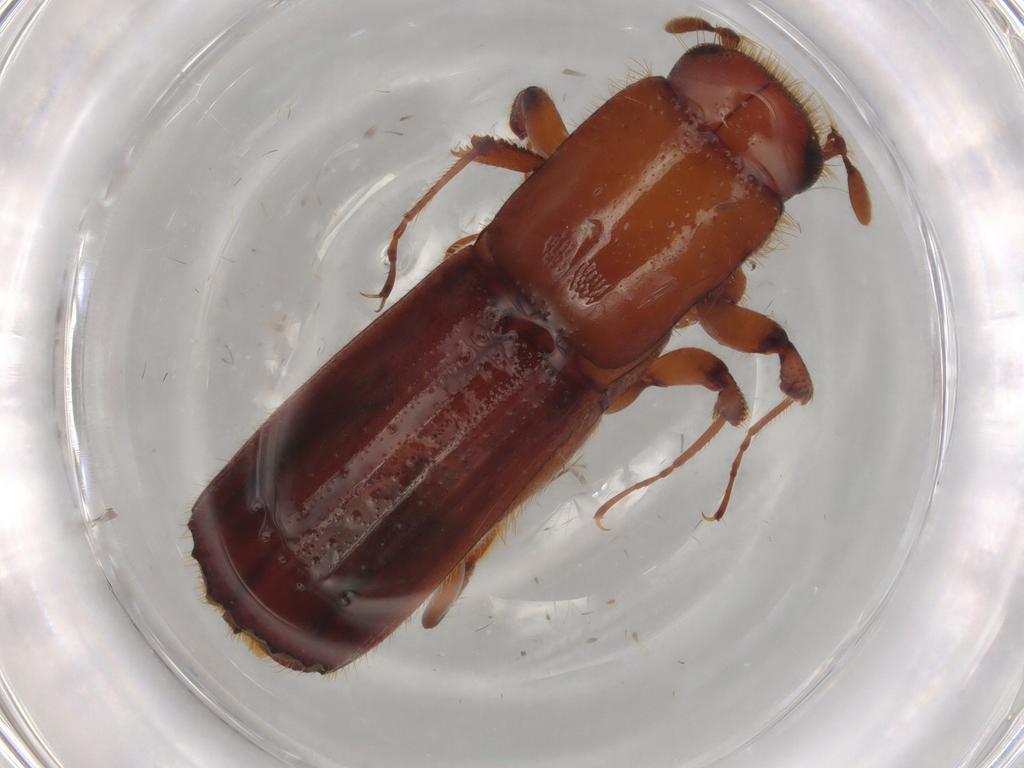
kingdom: Animalia
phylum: Arthropoda
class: Insecta
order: Coleoptera
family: Curculionidae
